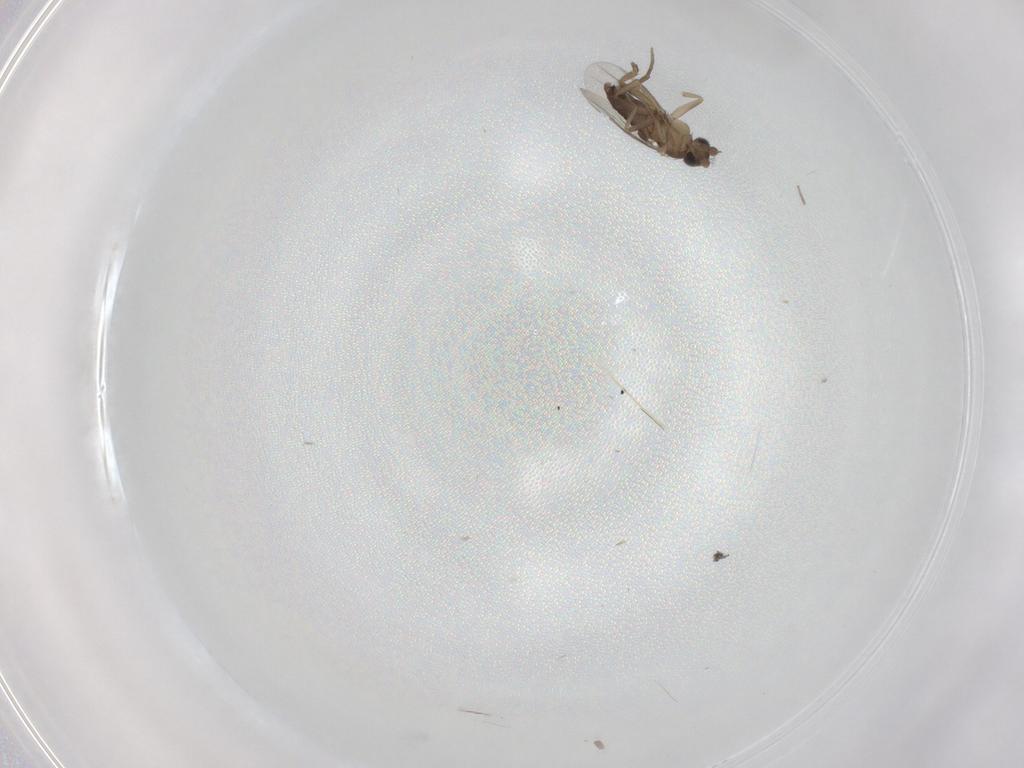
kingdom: Animalia
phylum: Arthropoda
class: Insecta
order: Diptera
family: Phoridae
